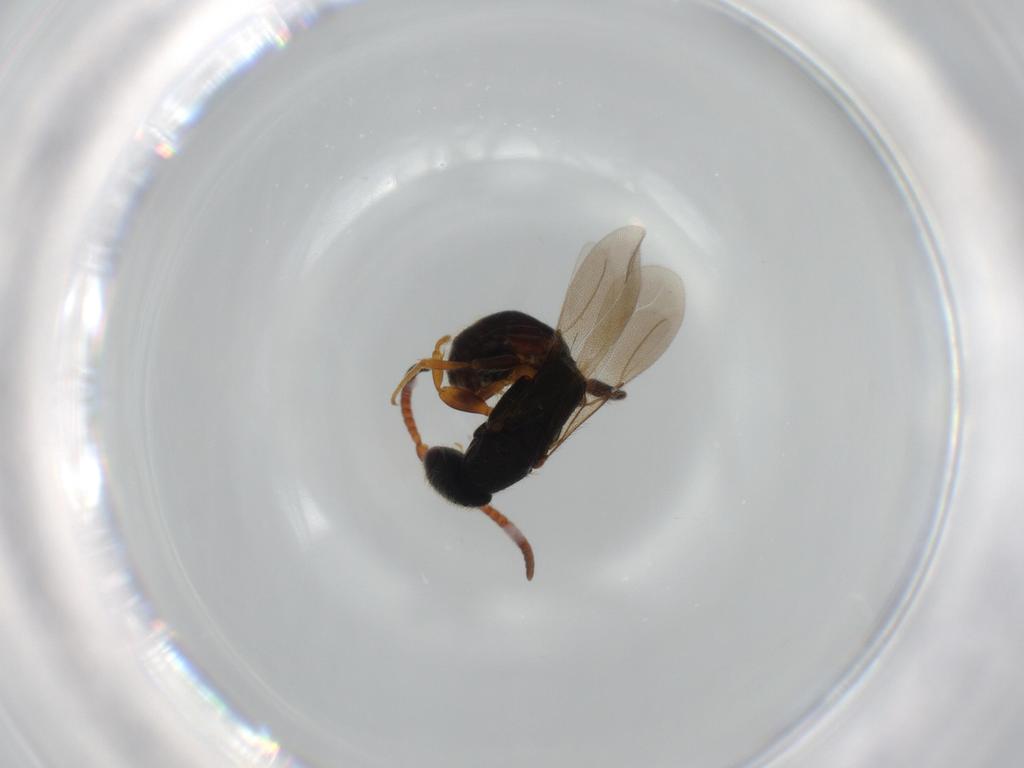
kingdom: Animalia
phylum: Arthropoda
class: Insecta
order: Hymenoptera
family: Bethylidae
